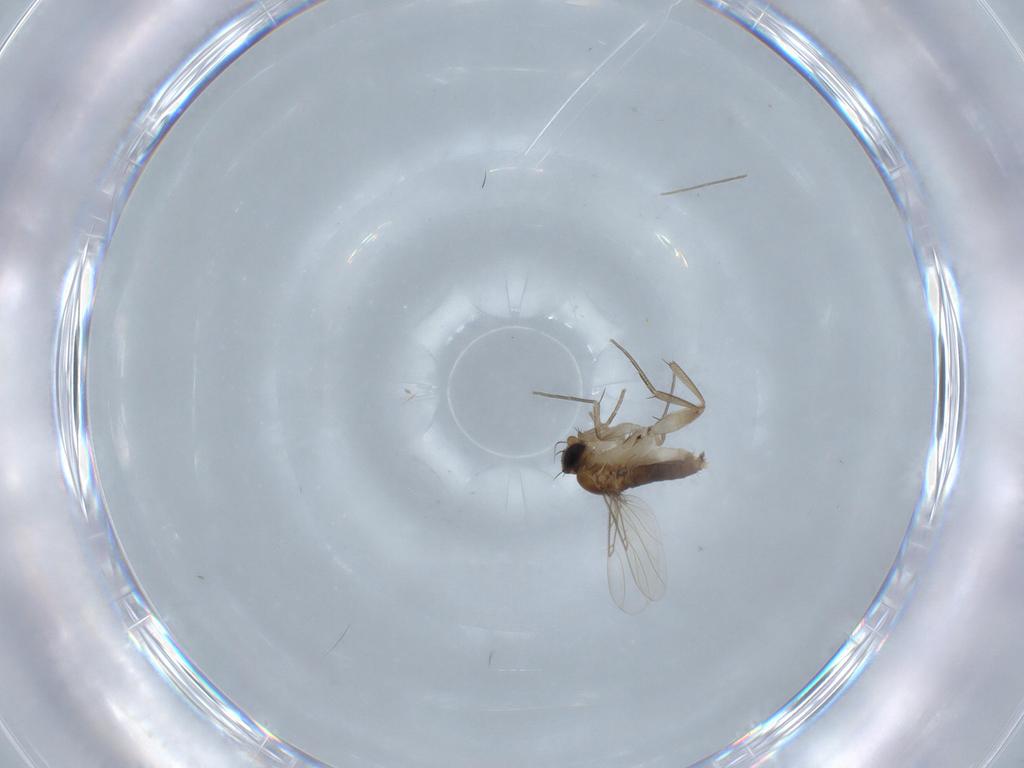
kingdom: Animalia
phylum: Arthropoda
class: Insecta
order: Diptera
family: Phoridae
